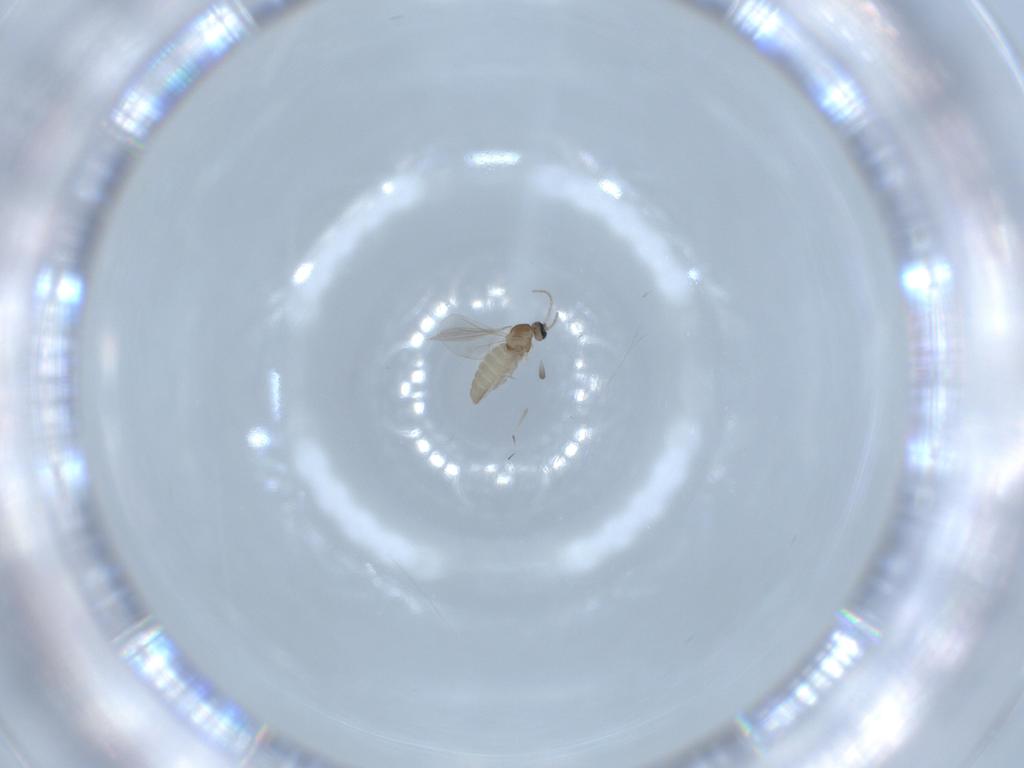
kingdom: Animalia
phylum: Arthropoda
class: Insecta
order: Diptera
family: Cecidomyiidae
